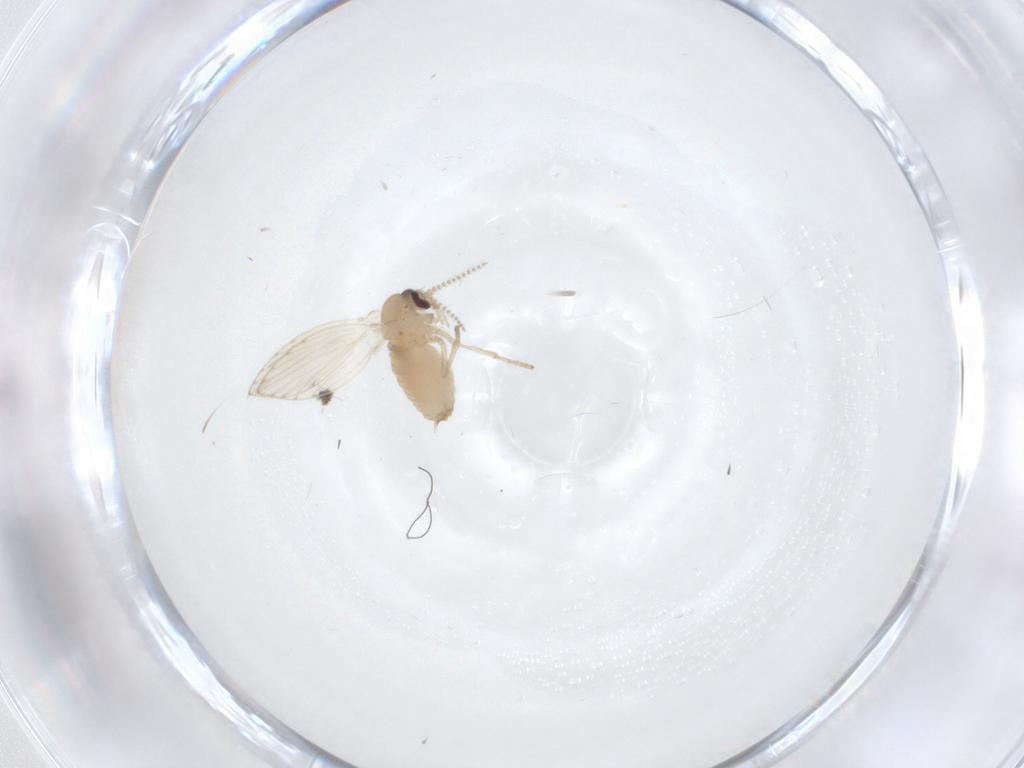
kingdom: Animalia
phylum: Arthropoda
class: Insecta
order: Diptera
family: Psychodidae
